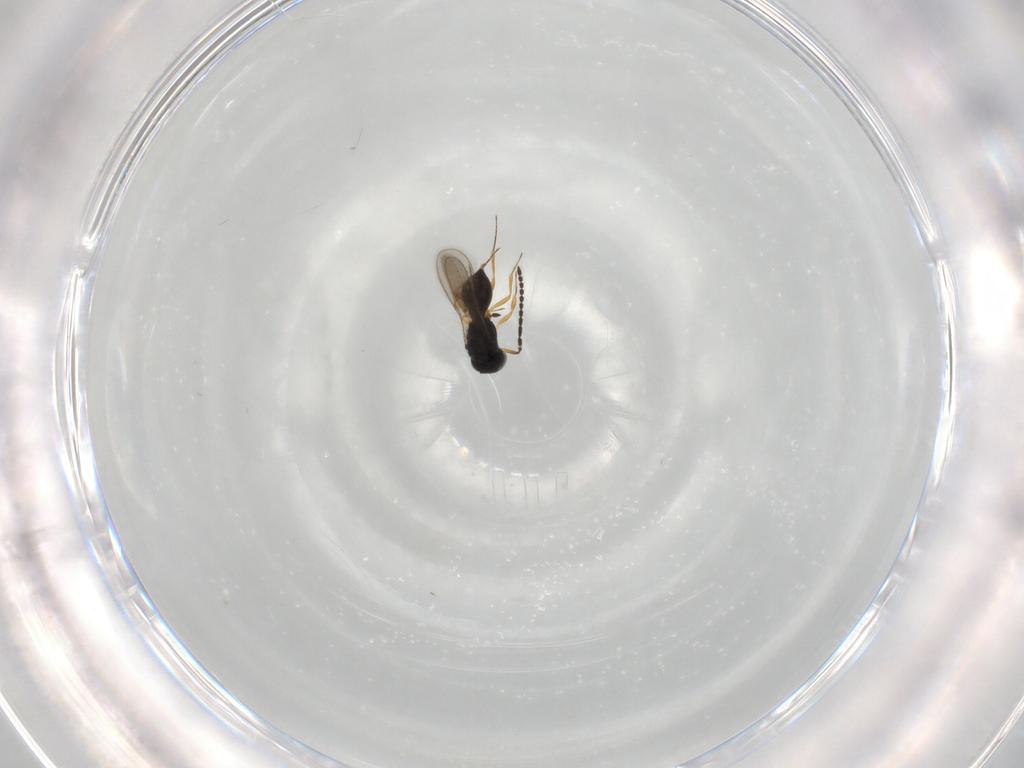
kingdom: Animalia
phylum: Arthropoda
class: Insecta
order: Hymenoptera
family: Scelionidae
